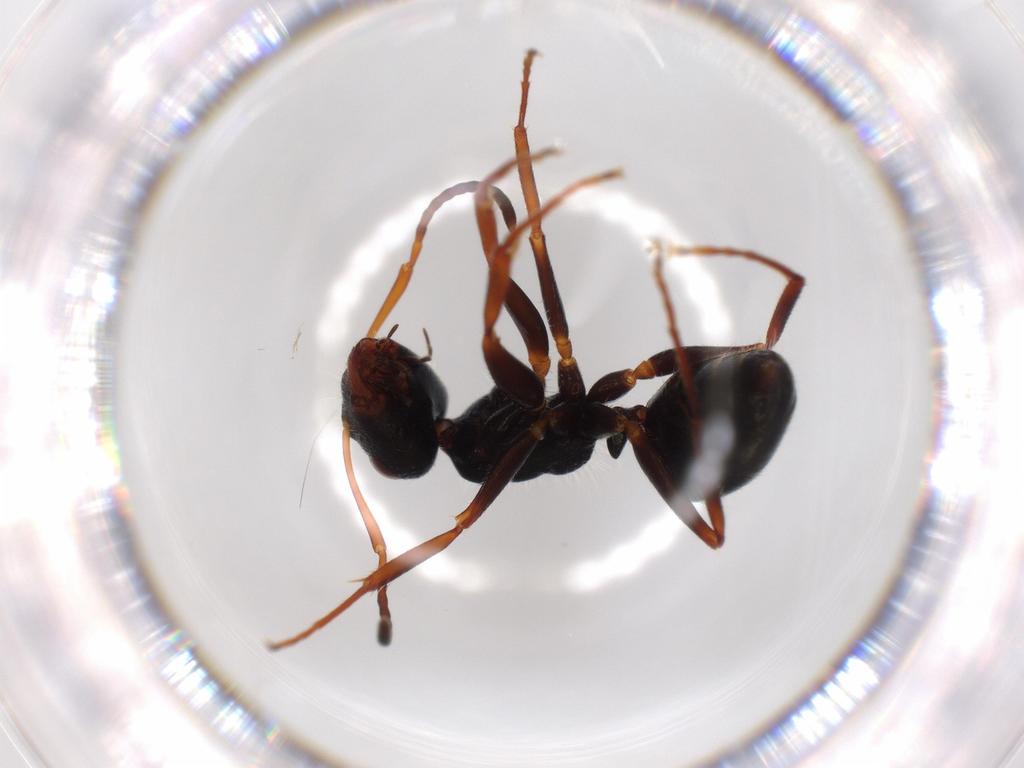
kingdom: Animalia
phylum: Arthropoda
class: Insecta
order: Hymenoptera
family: Formicidae
